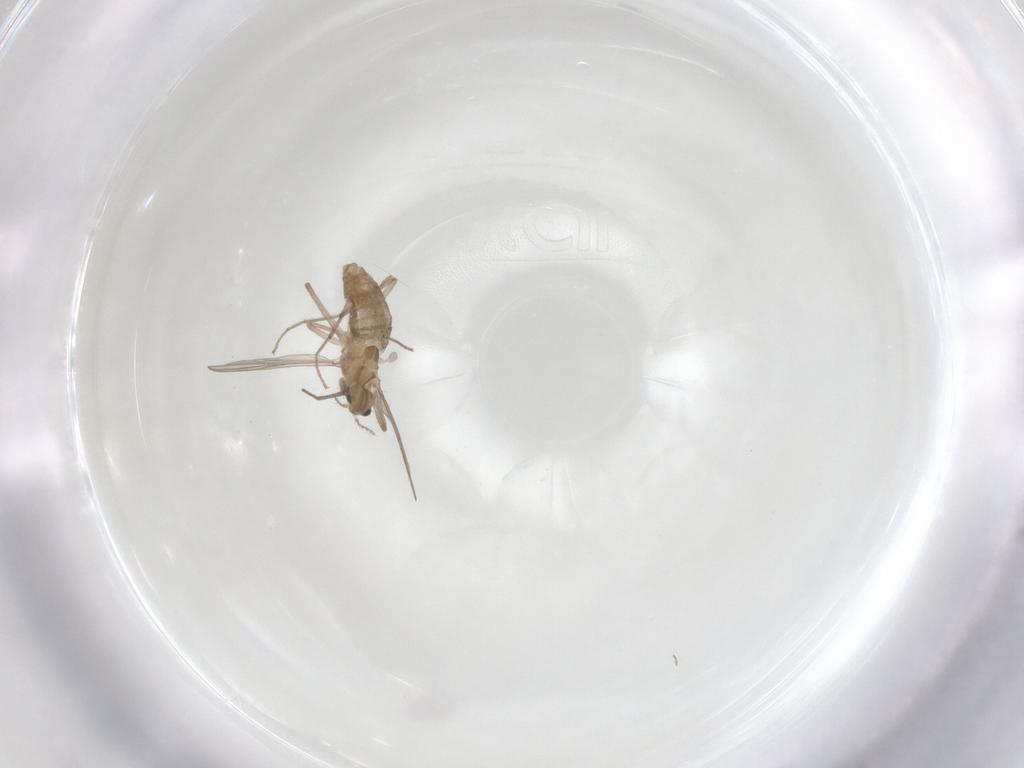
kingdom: Animalia
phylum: Arthropoda
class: Insecta
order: Diptera
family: Chironomidae
